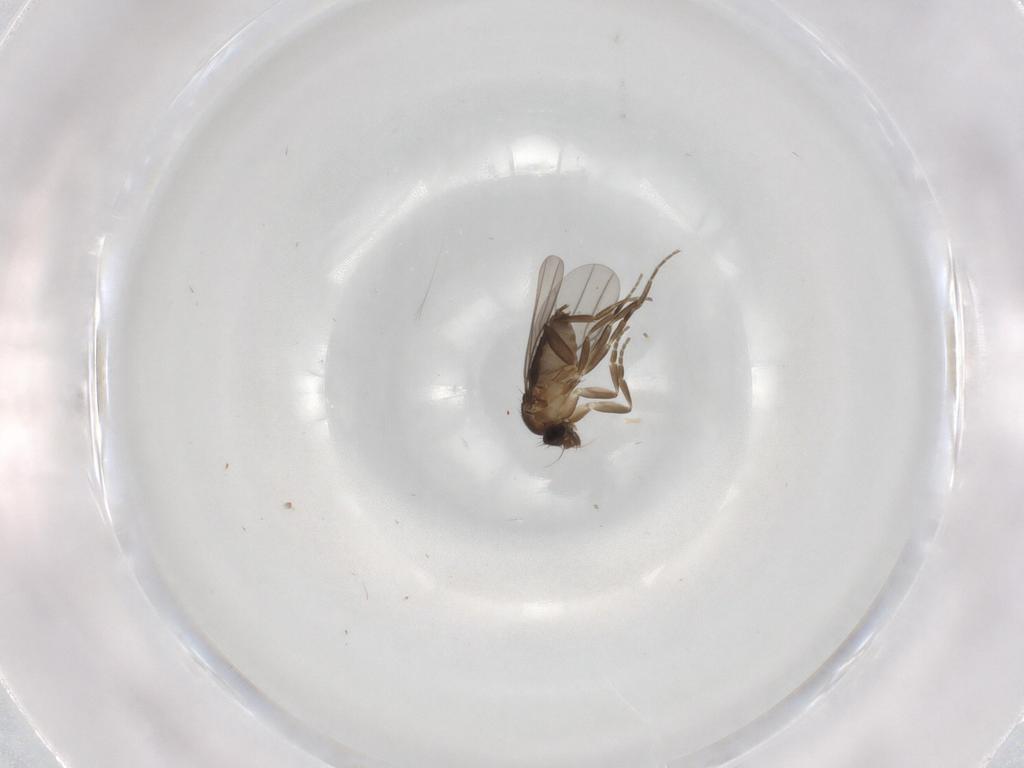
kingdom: Animalia
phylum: Arthropoda
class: Insecta
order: Diptera
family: Phoridae
